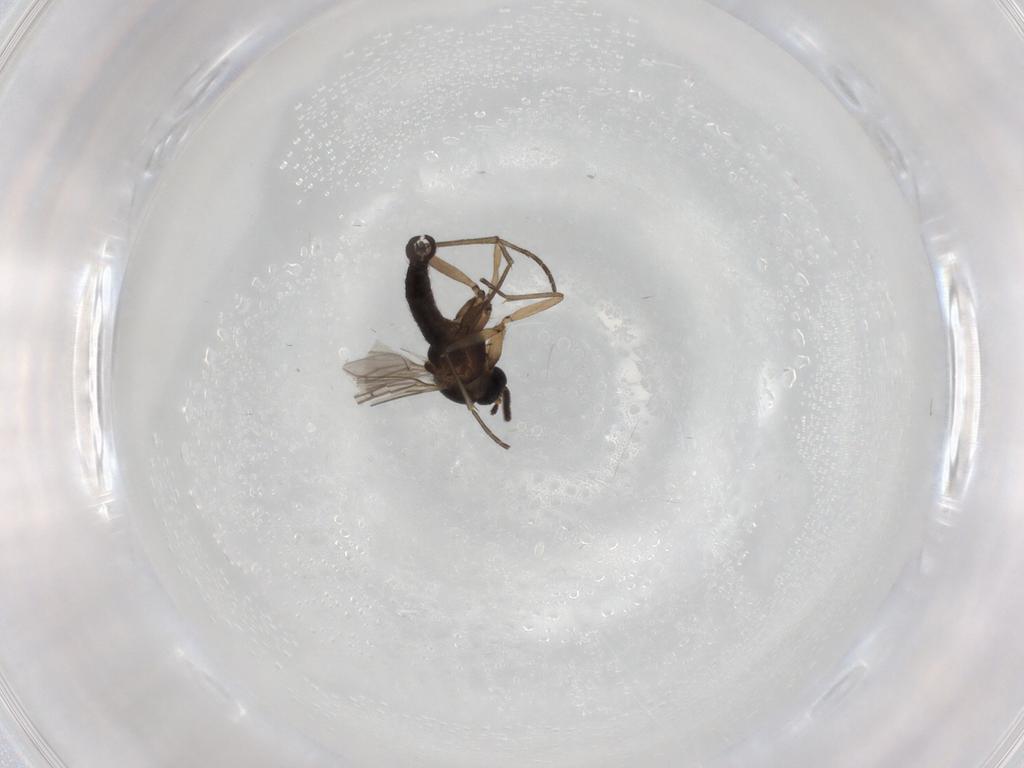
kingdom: Animalia
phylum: Arthropoda
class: Insecta
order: Diptera
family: Sciaridae
